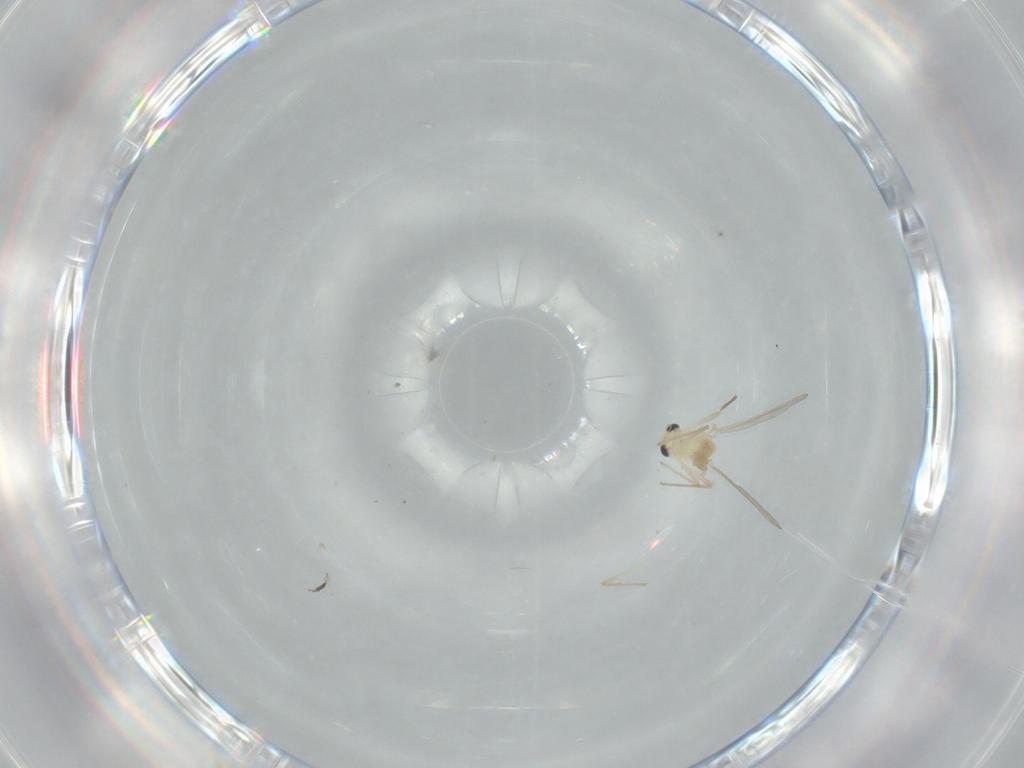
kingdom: Animalia
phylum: Arthropoda
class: Insecta
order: Diptera
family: Chironomidae
